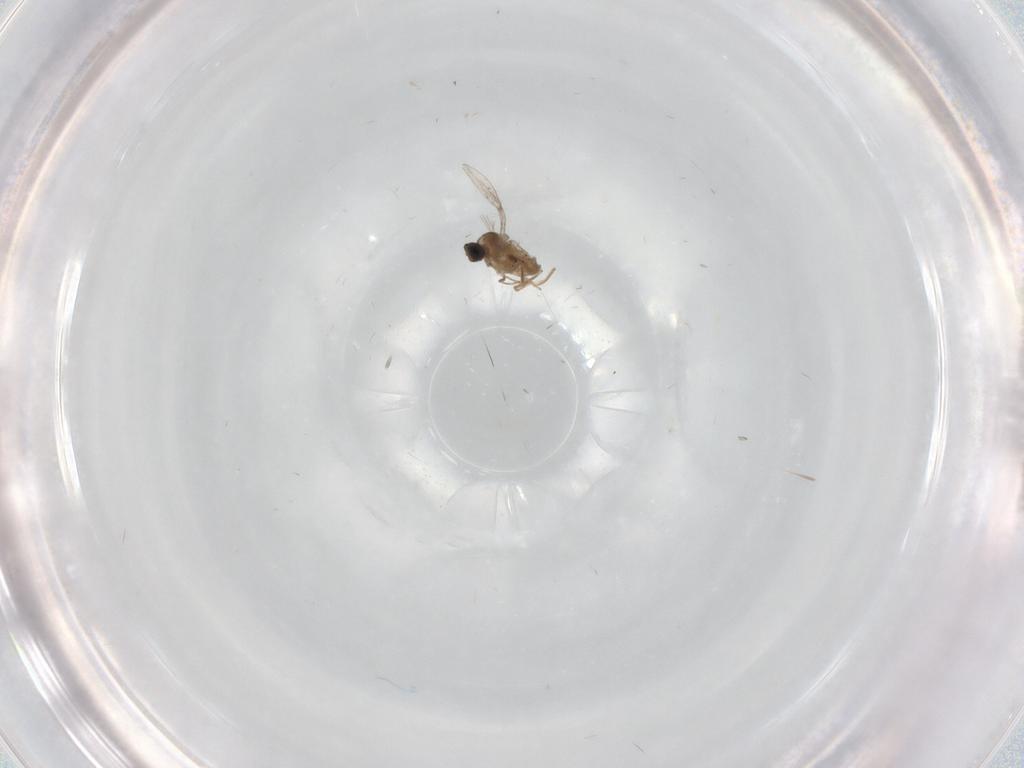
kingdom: Animalia
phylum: Arthropoda
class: Insecta
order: Diptera
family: Chironomidae
